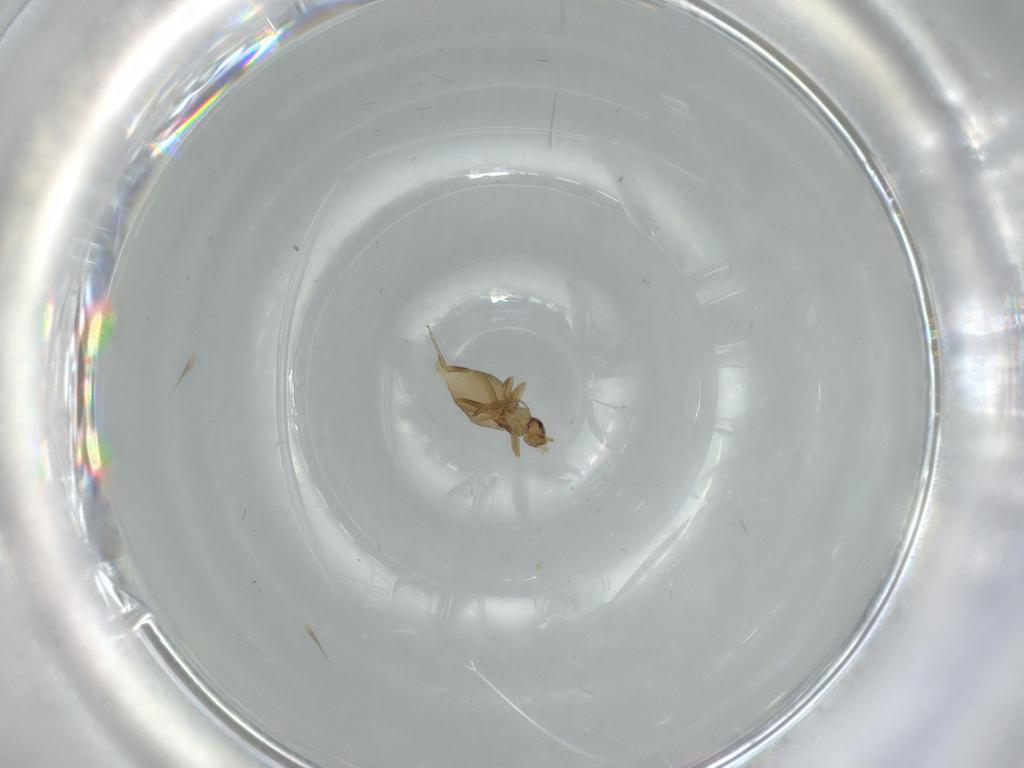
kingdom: Animalia
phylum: Arthropoda
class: Insecta
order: Diptera
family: Phoridae
